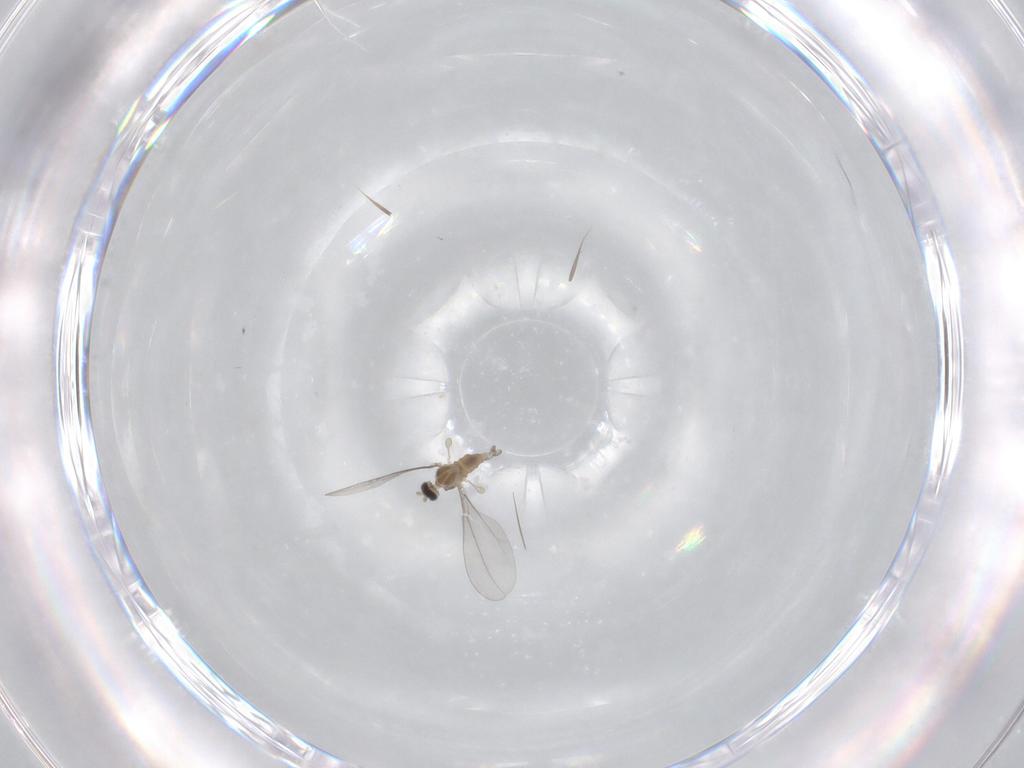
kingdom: Animalia
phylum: Arthropoda
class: Insecta
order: Diptera
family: Cecidomyiidae
